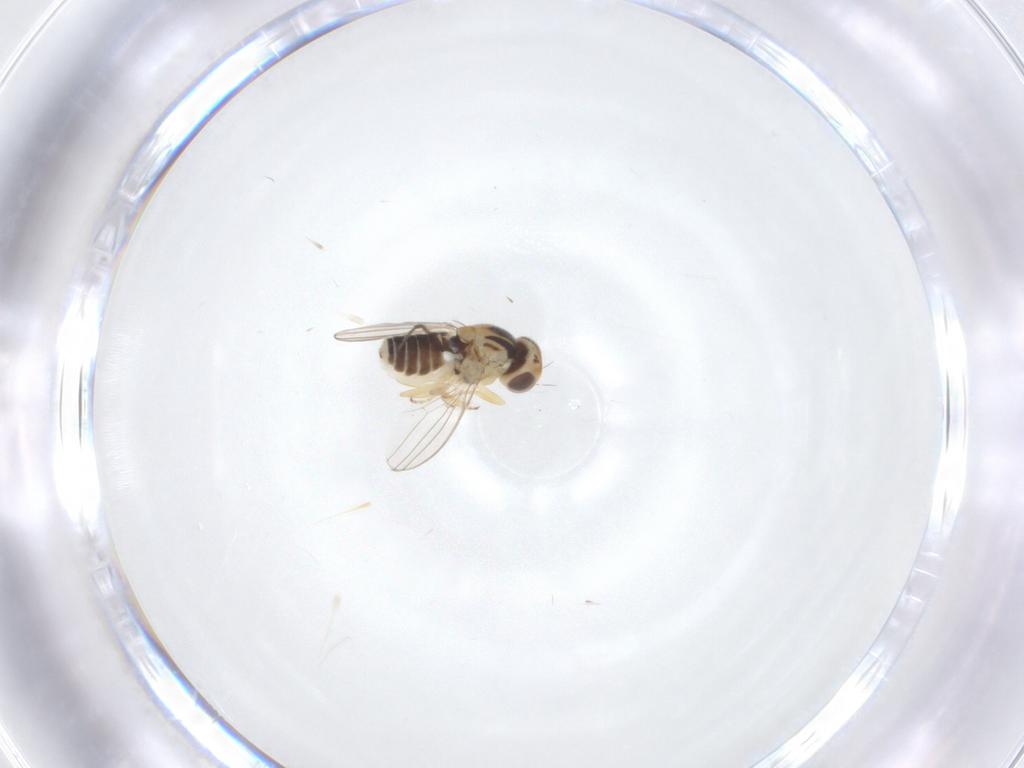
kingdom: Animalia
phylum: Arthropoda
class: Insecta
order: Diptera
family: Chyromyidae
